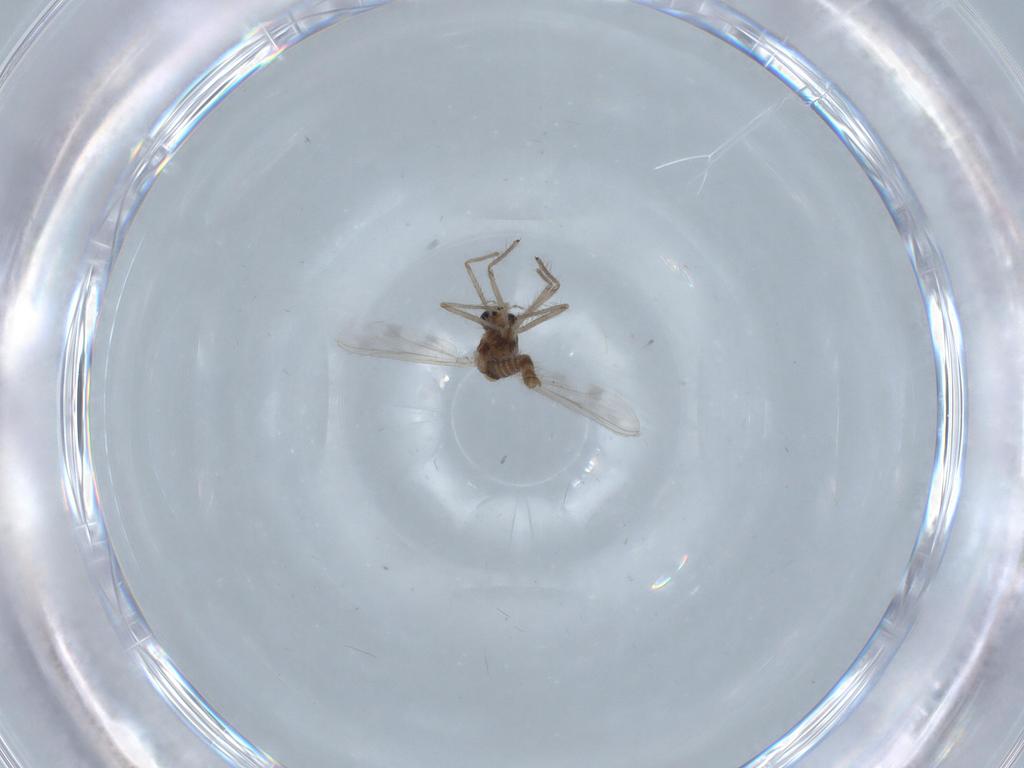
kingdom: Animalia
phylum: Arthropoda
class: Insecta
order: Diptera
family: Chironomidae
